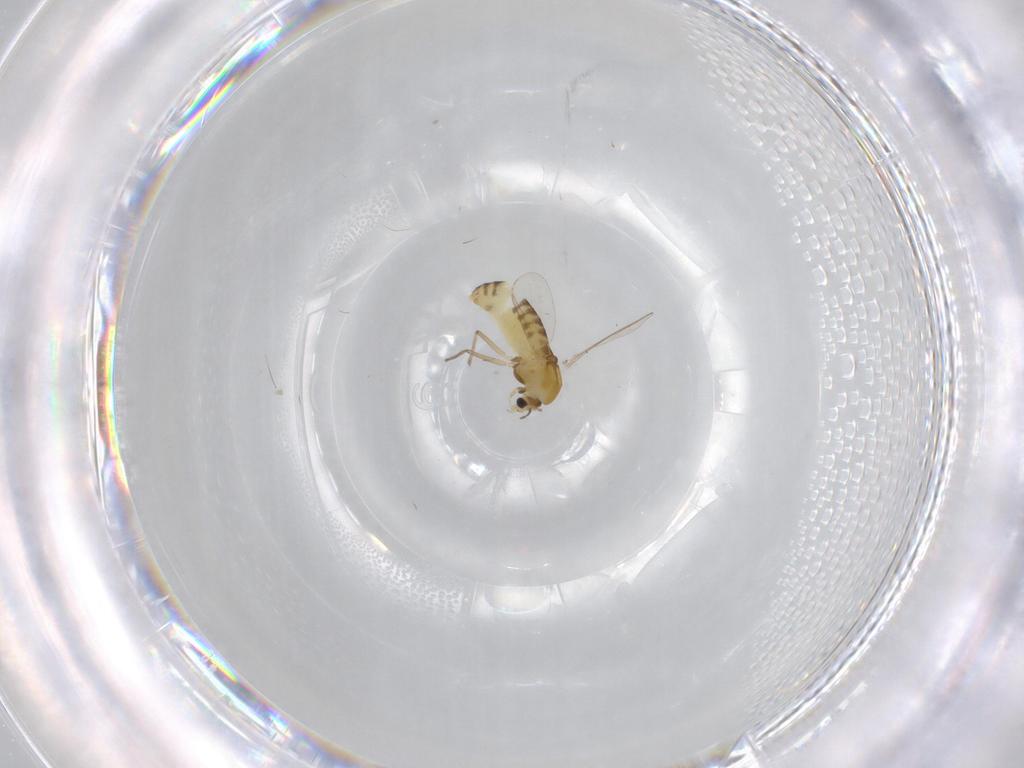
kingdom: Animalia
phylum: Arthropoda
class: Insecta
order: Diptera
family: Chironomidae
